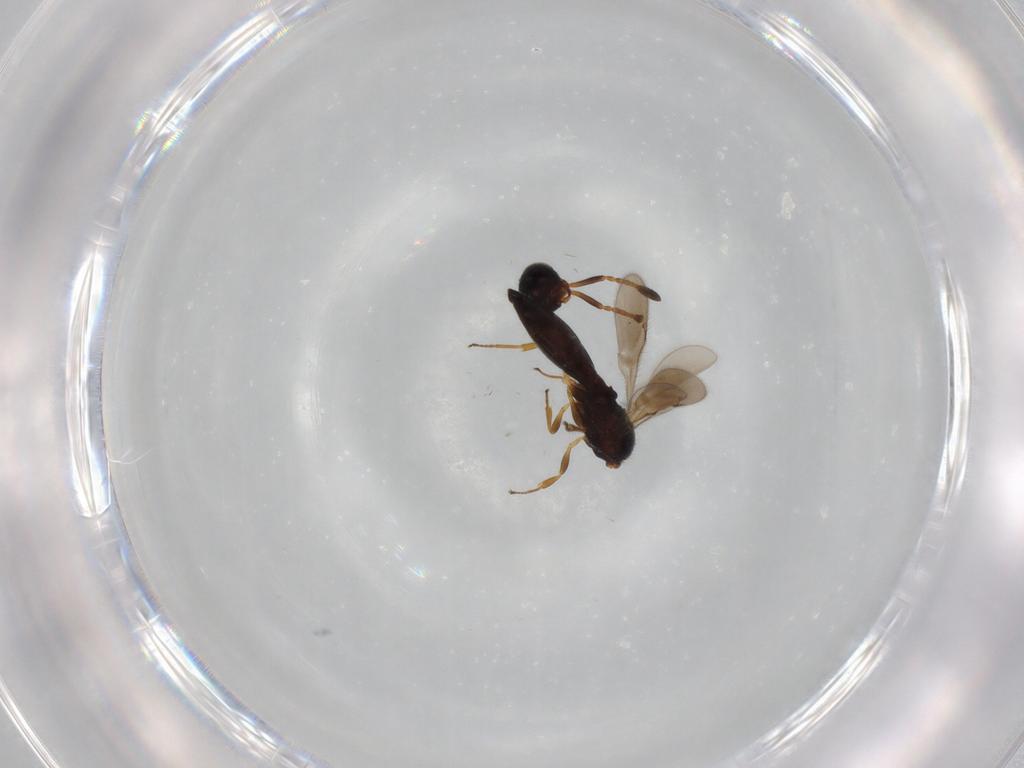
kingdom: Animalia
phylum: Arthropoda
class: Insecta
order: Hymenoptera
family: Scelionidae
